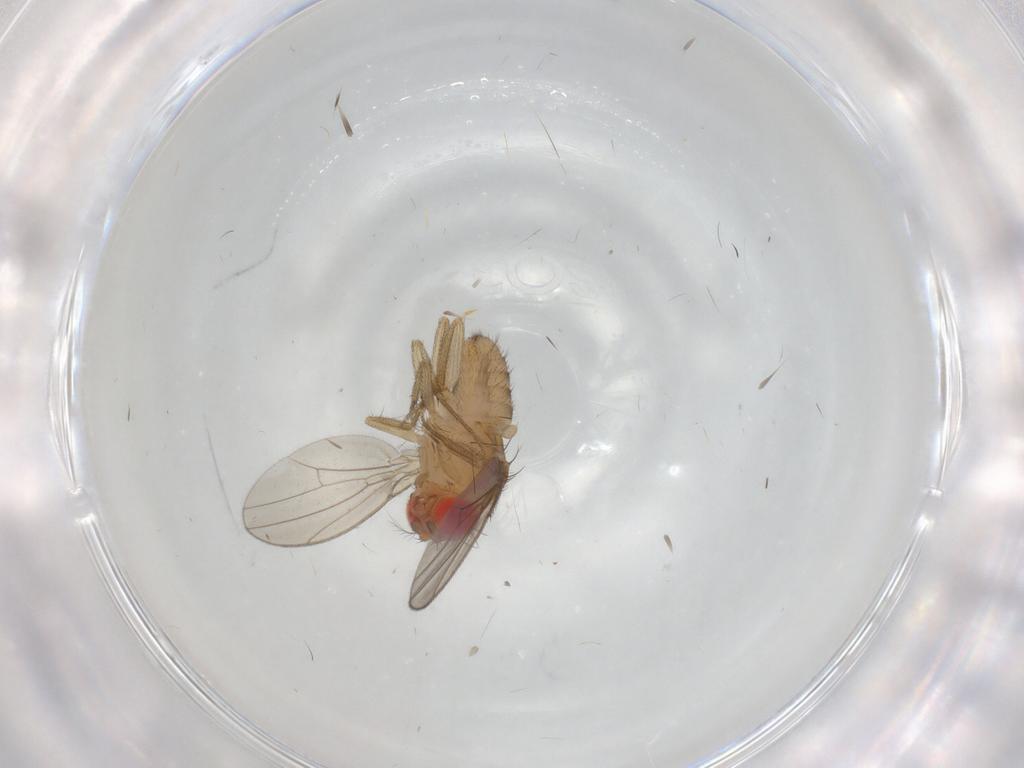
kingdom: Animalia
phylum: Arthropoda
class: Insecta
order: Diptera
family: Drosophilidae
